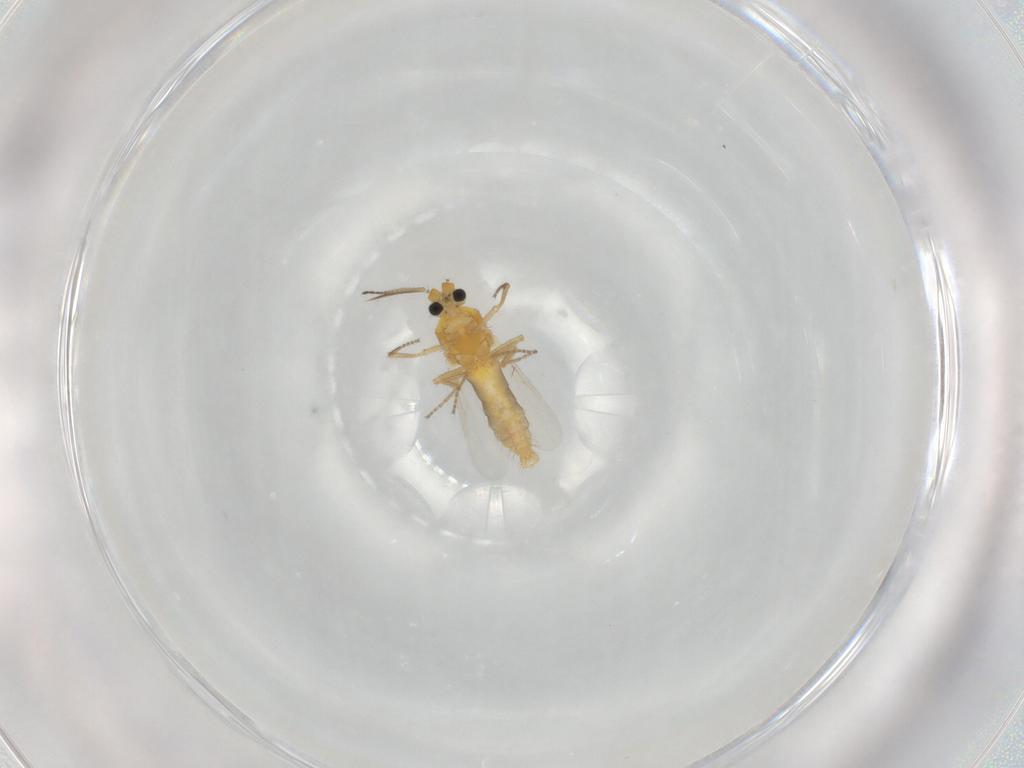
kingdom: Animalia
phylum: Arthropoda
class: Insecta
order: Diptera
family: Ceratopogonidae
